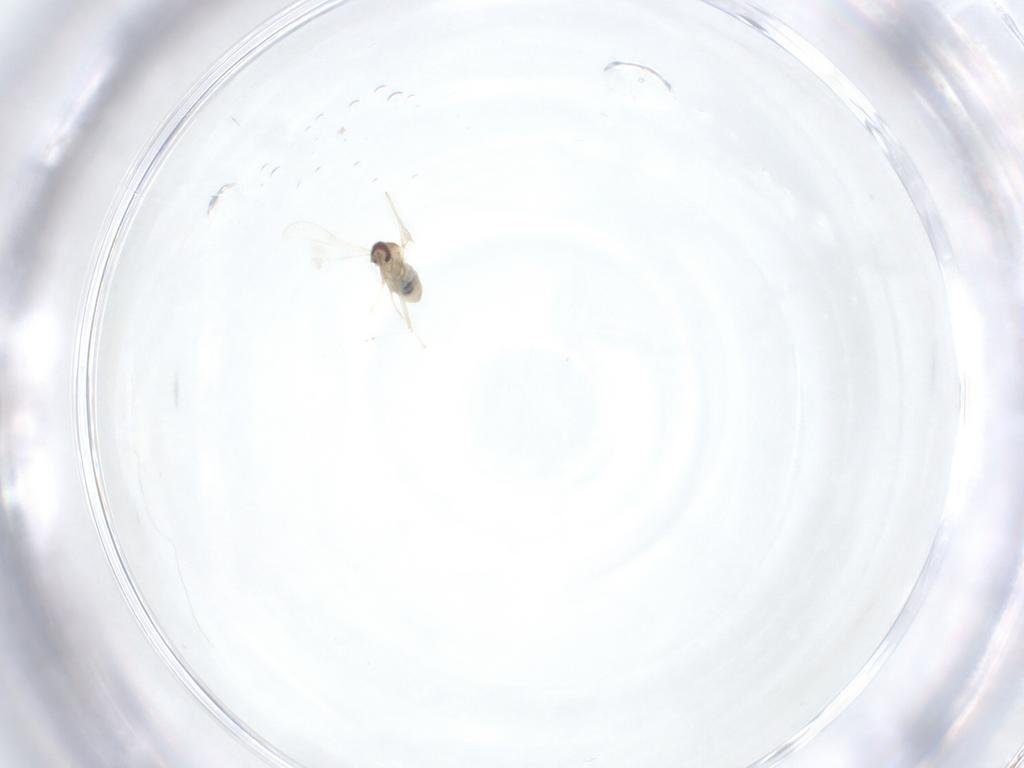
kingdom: Animalia
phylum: Arthropoda
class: Insecta
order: Diptera
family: Cecidomyiidae
